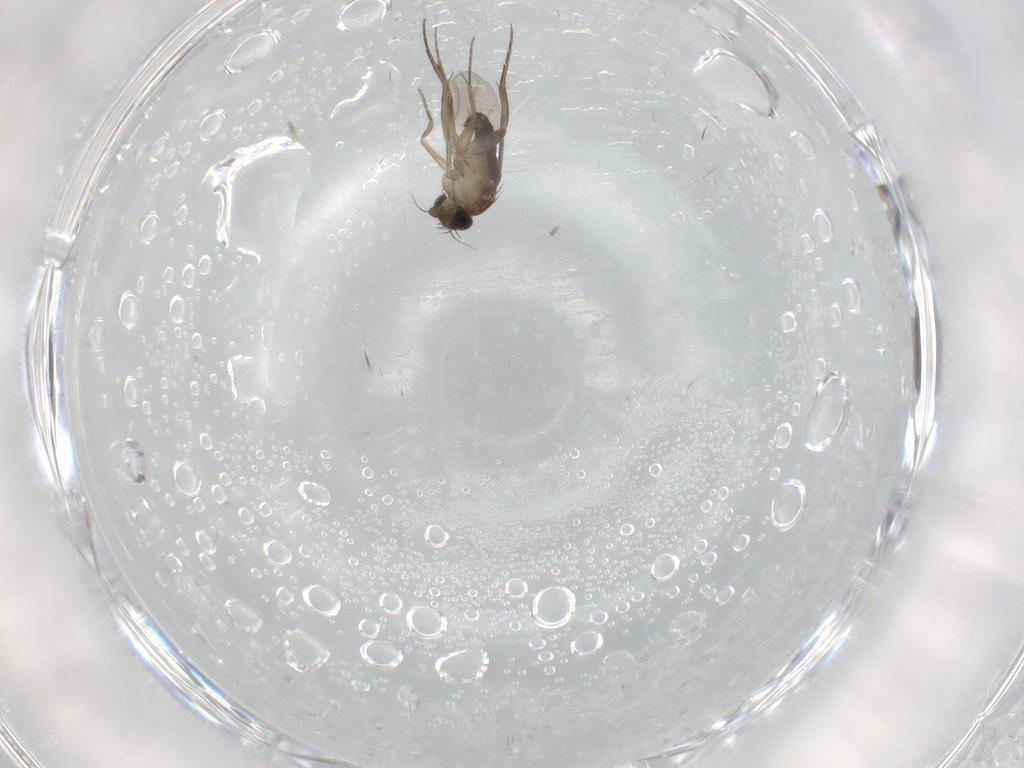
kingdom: Animalia
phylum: Arthropoda
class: Insecta
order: Diptera
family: Phoridae
